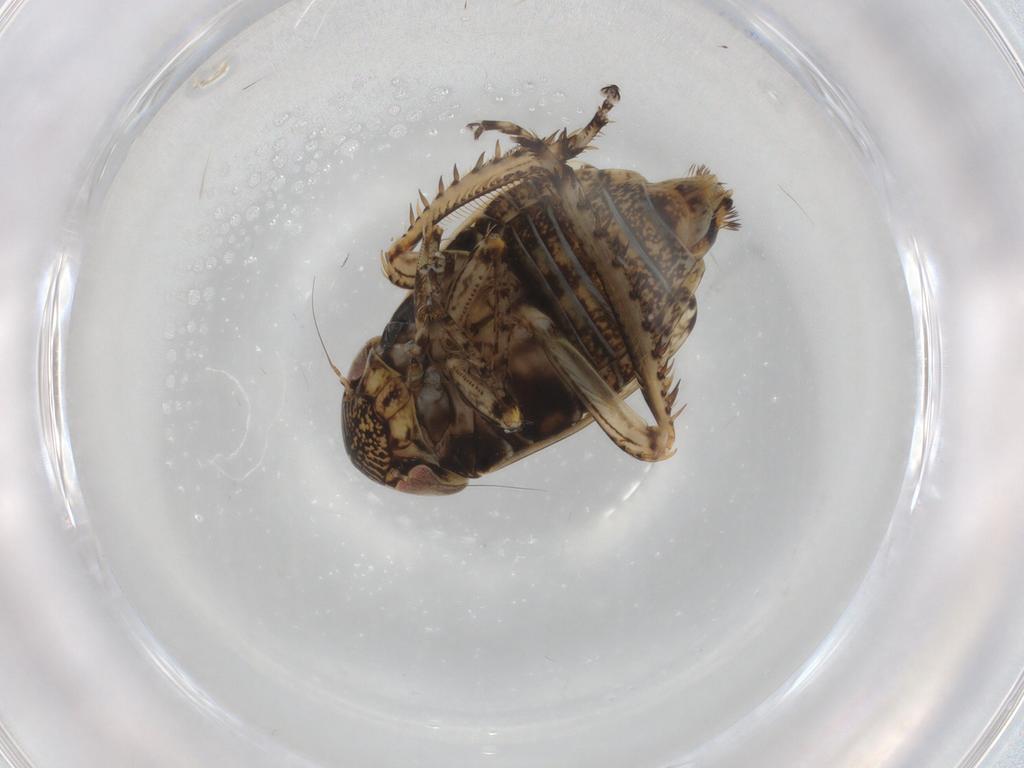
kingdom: Animalia
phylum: Arthropoda
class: Insecta
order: Hemiptera
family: Cicadellidae
